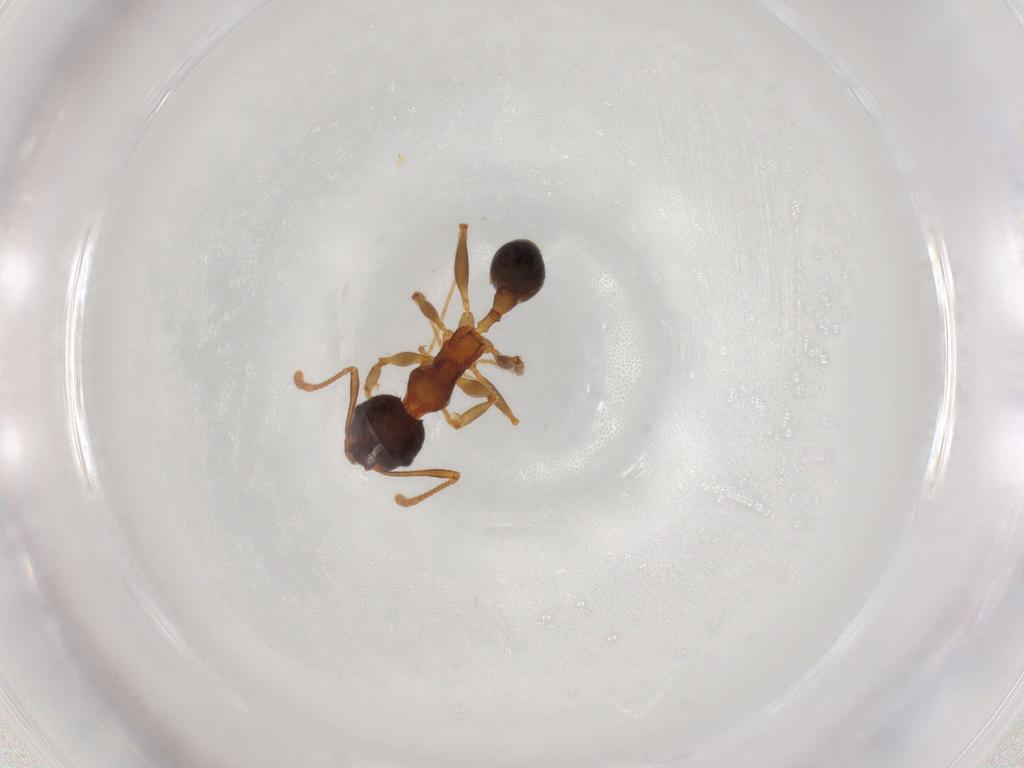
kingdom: Animalia
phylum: Arthropoda
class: Insecta
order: Hymenoptera
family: Formicidae
